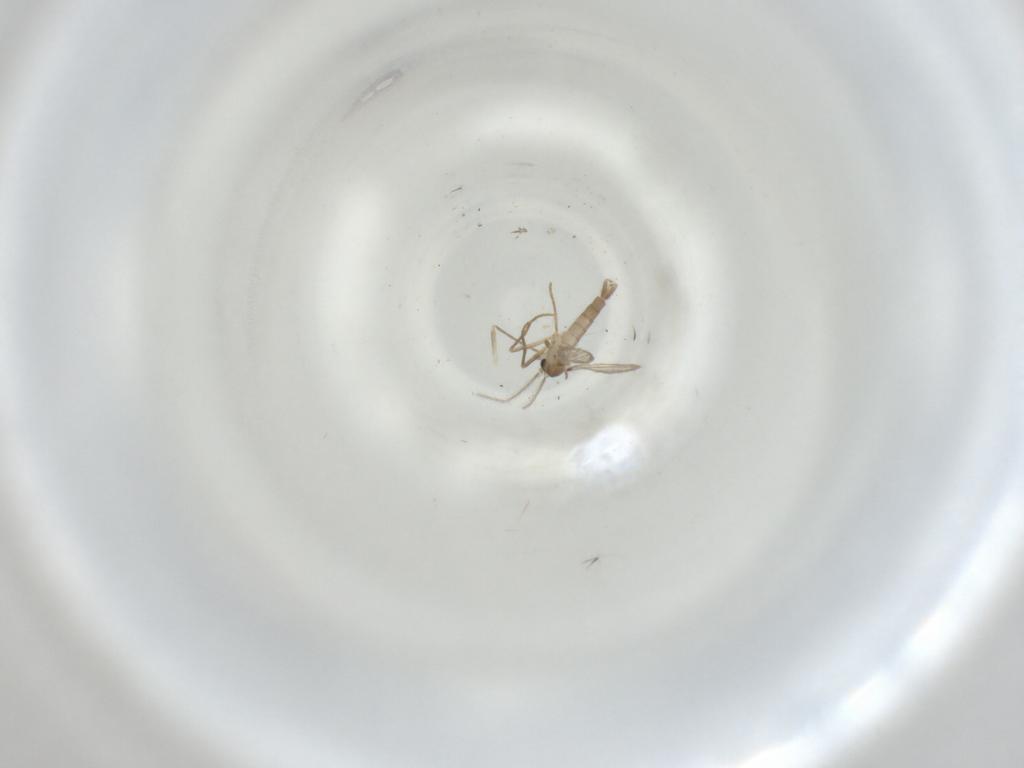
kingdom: Animalia
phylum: Arthropoda
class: Insecta
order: Diptera
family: Psychodidae
